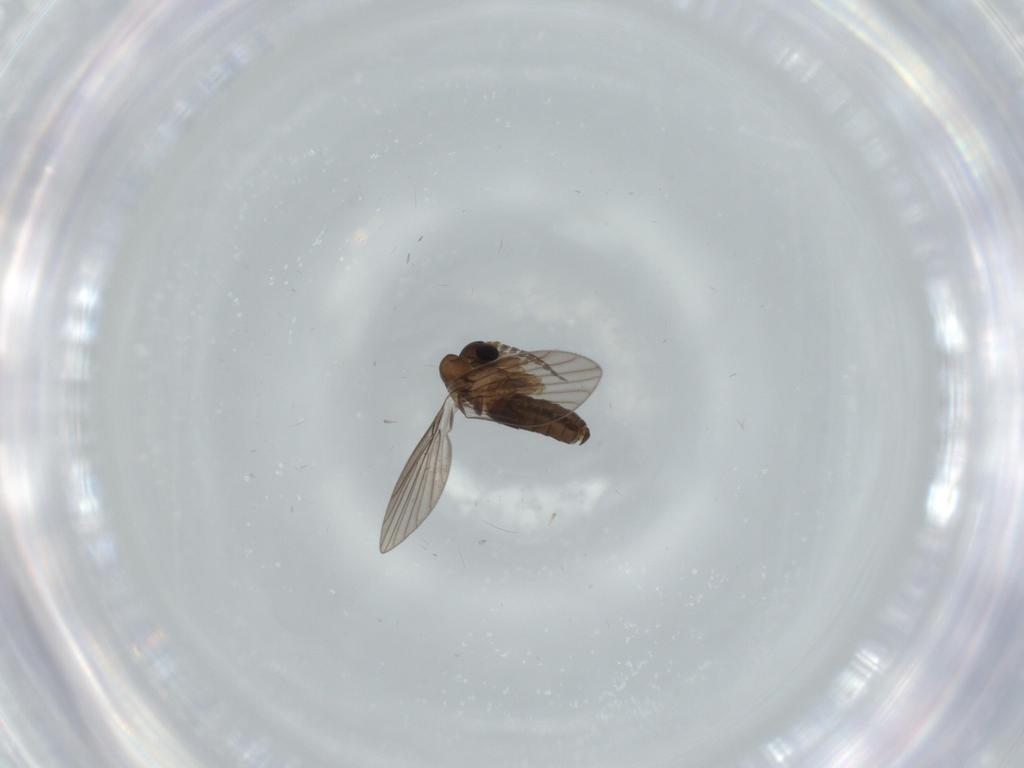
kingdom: Animalia
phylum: Arthropoda
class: Insecta
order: Diptera
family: Psychodidae
